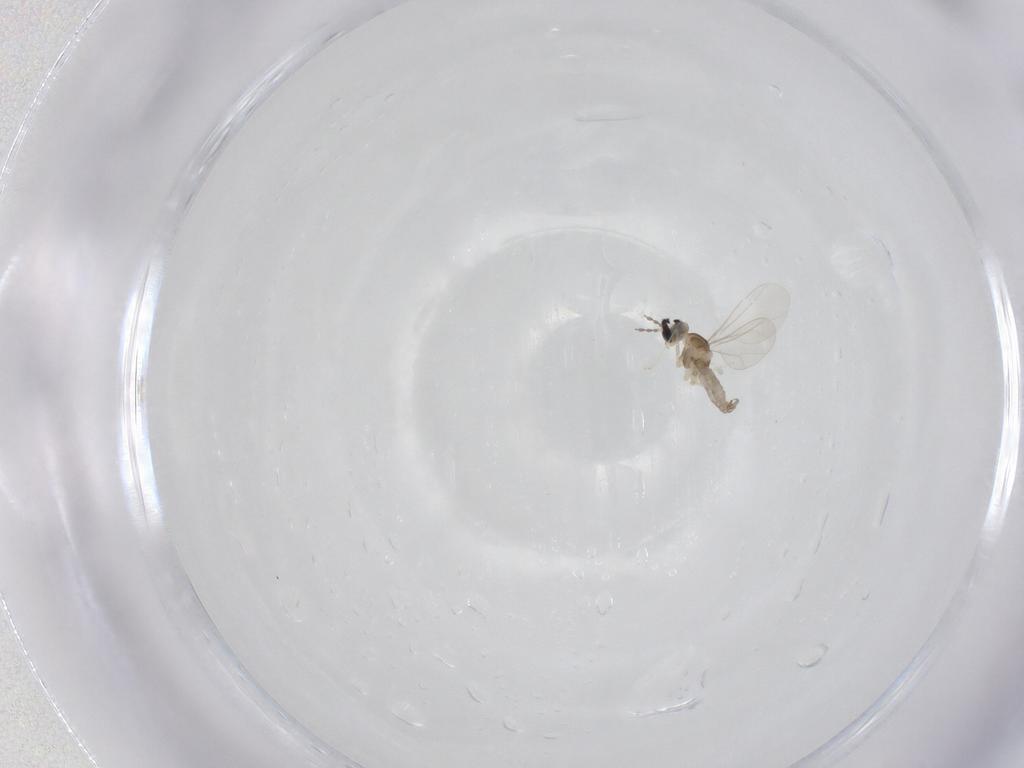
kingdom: Animalia
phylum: Arthropoda
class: Insecta
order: Diptera
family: Cecidomyiidae
